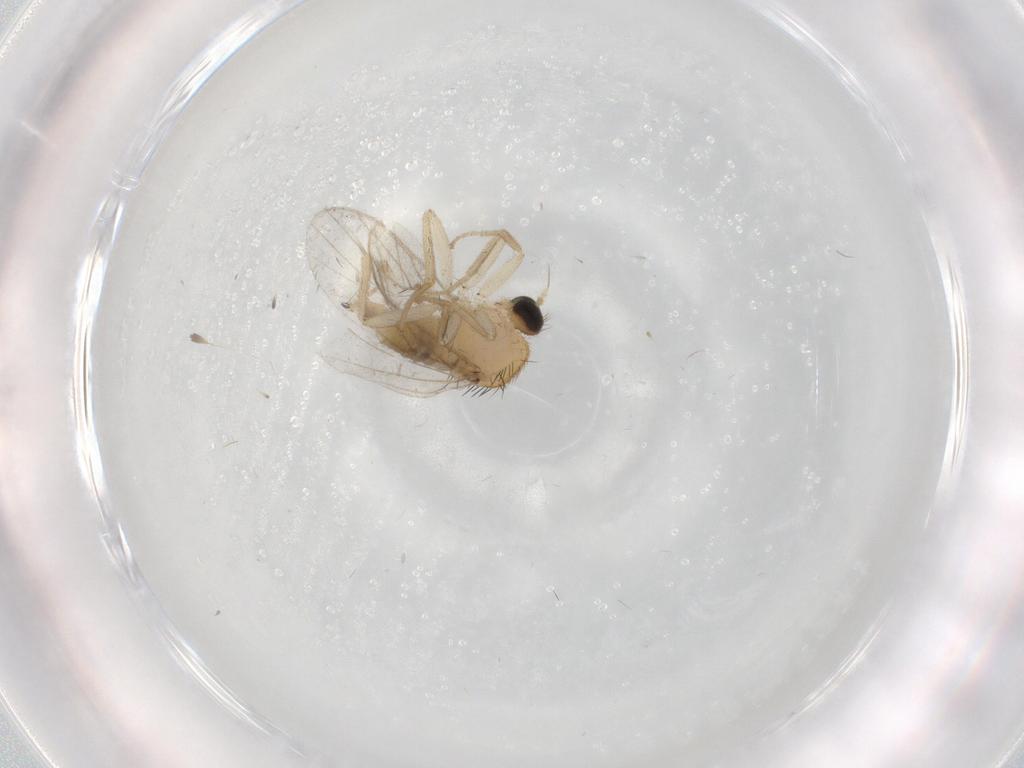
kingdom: Animalia
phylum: Arthropoda
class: Insecta
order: Diptera
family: Hybotidae
